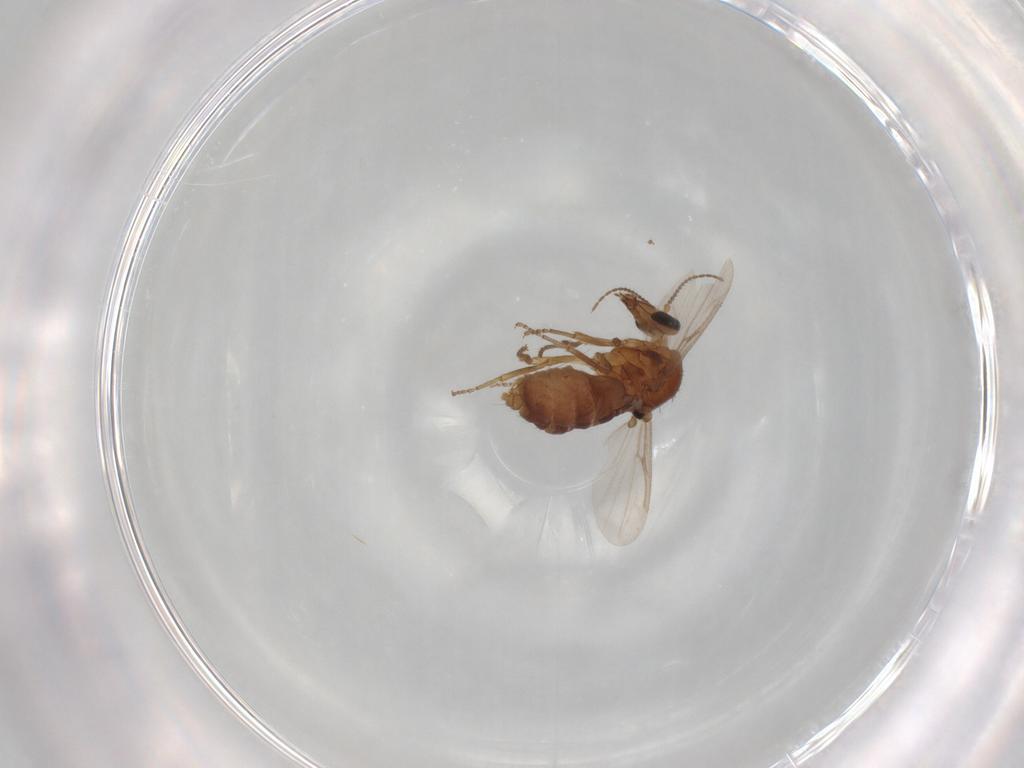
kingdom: Animalia
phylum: Arthropoda
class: Insecta
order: Diptera
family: Ceratopogonidae
